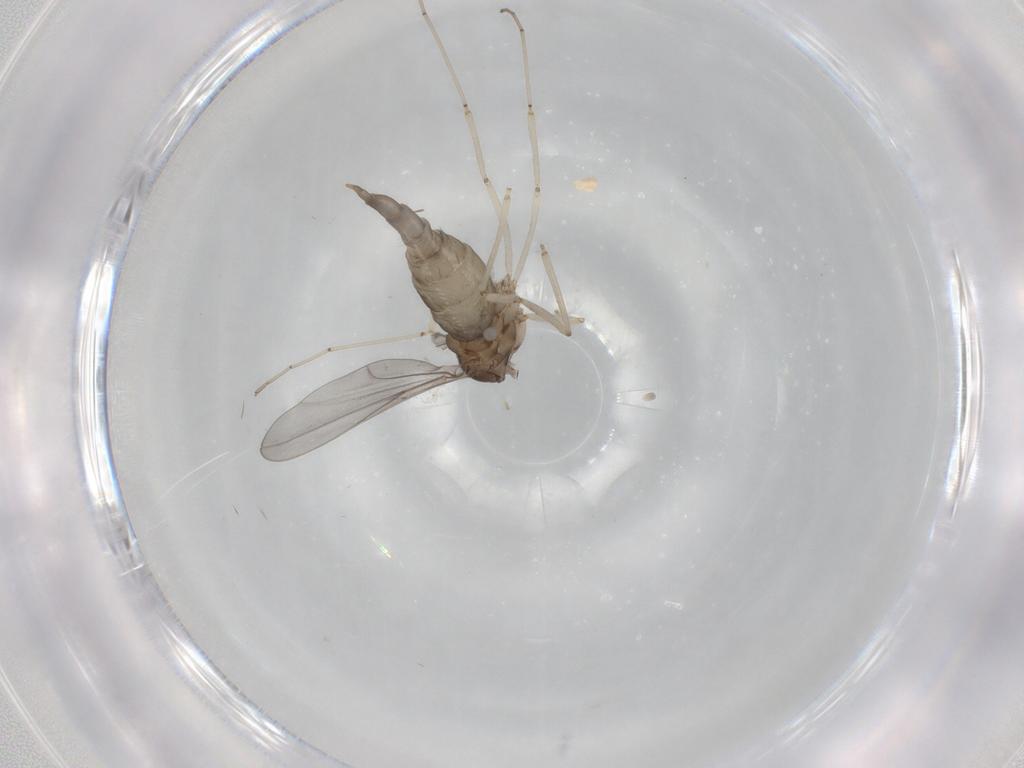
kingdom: Animalia
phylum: Arthropoda
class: Insecta
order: Diptera
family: Cecidomyiidae
